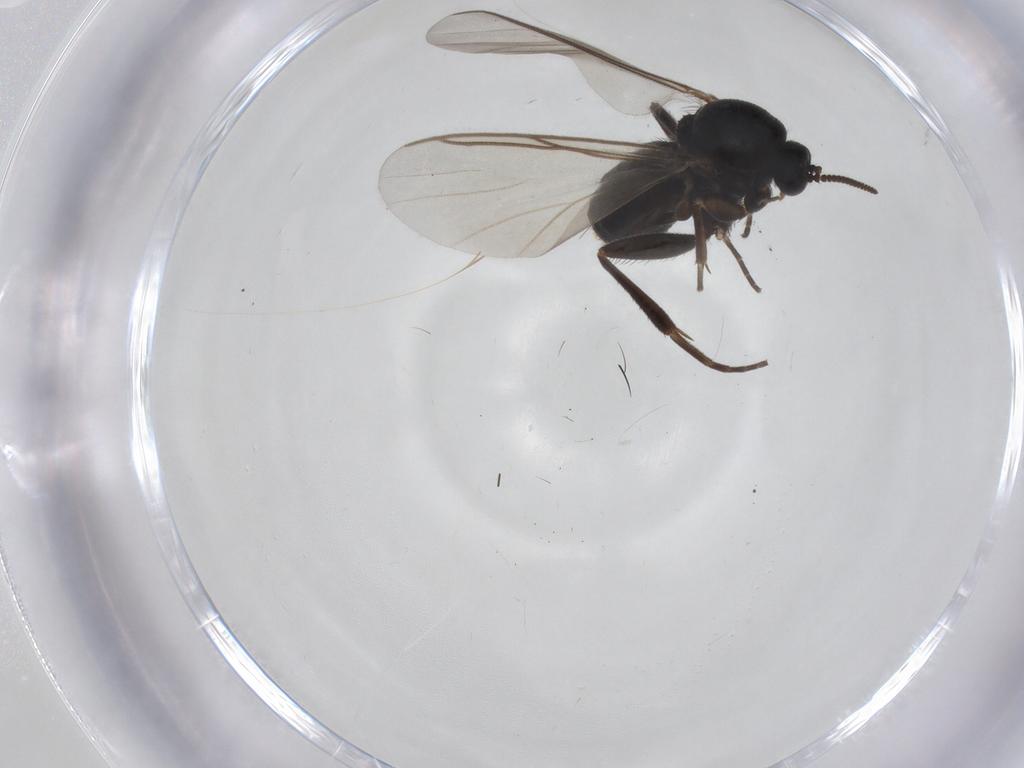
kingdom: Animalia
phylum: Arthropoda
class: Insecta
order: Diptera
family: Mycetophilidae
